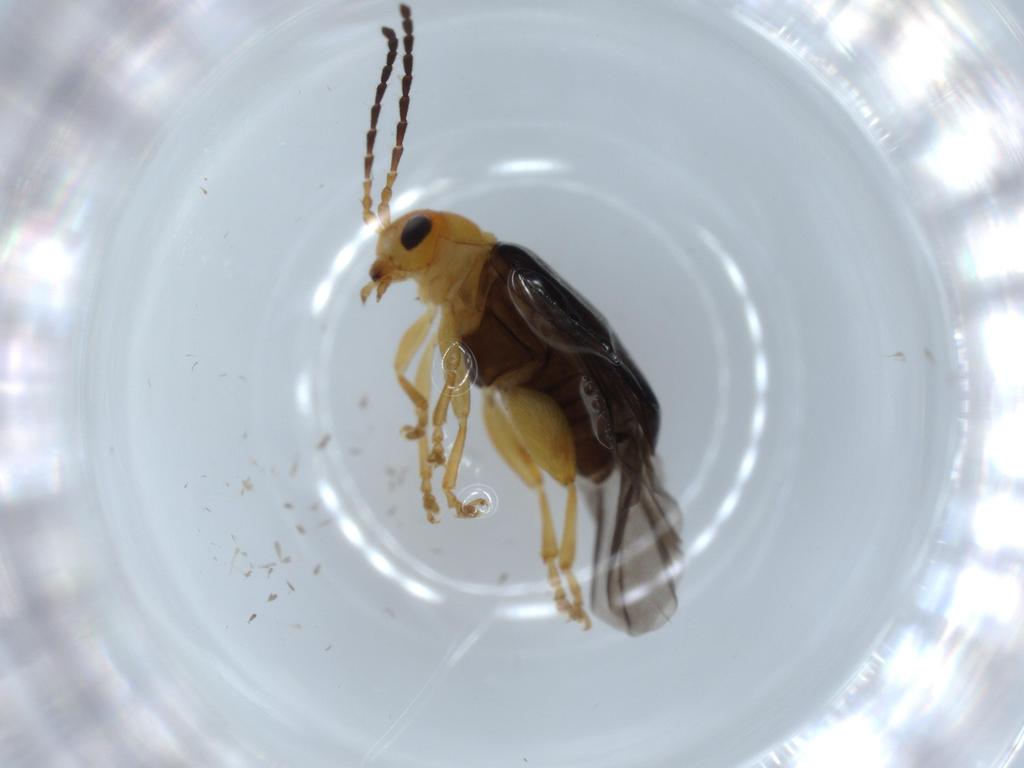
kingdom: Animalia
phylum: Arthropoda
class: Insecta
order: Coleoptera
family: Chrysomelidae
